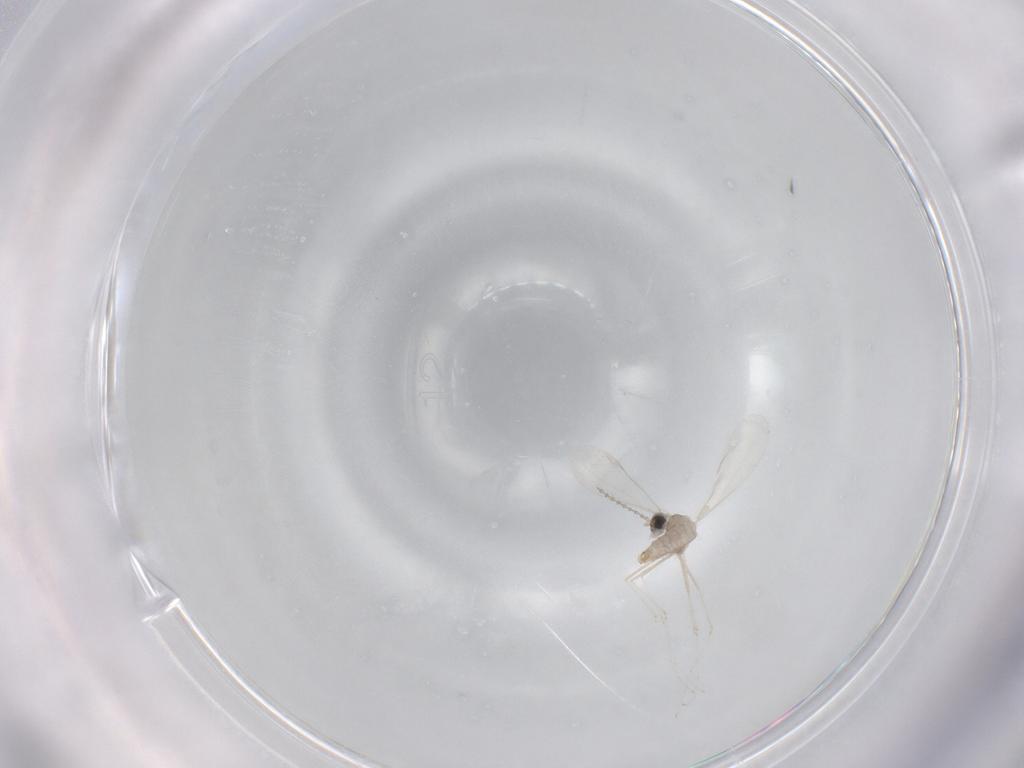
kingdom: Animalia
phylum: Arthropoda
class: Insecta
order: Diptera
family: Cecidomyiidae
